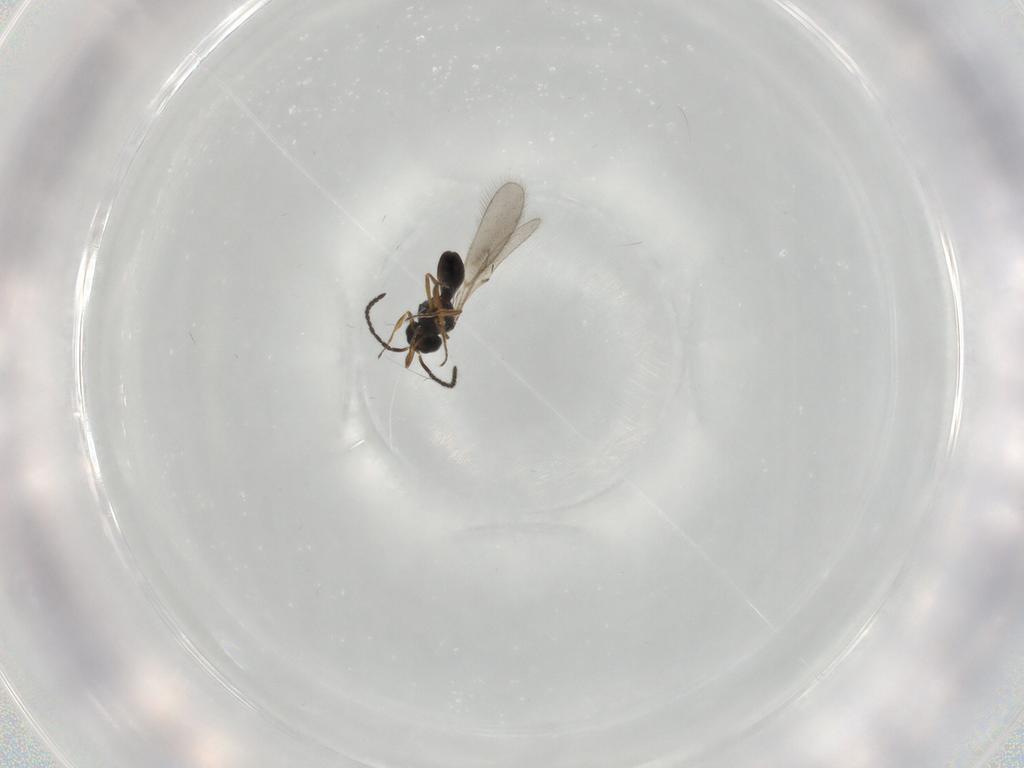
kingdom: Animalia
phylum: Arthropoda
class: Insecta
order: Hymenoptera
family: Scelionidae
